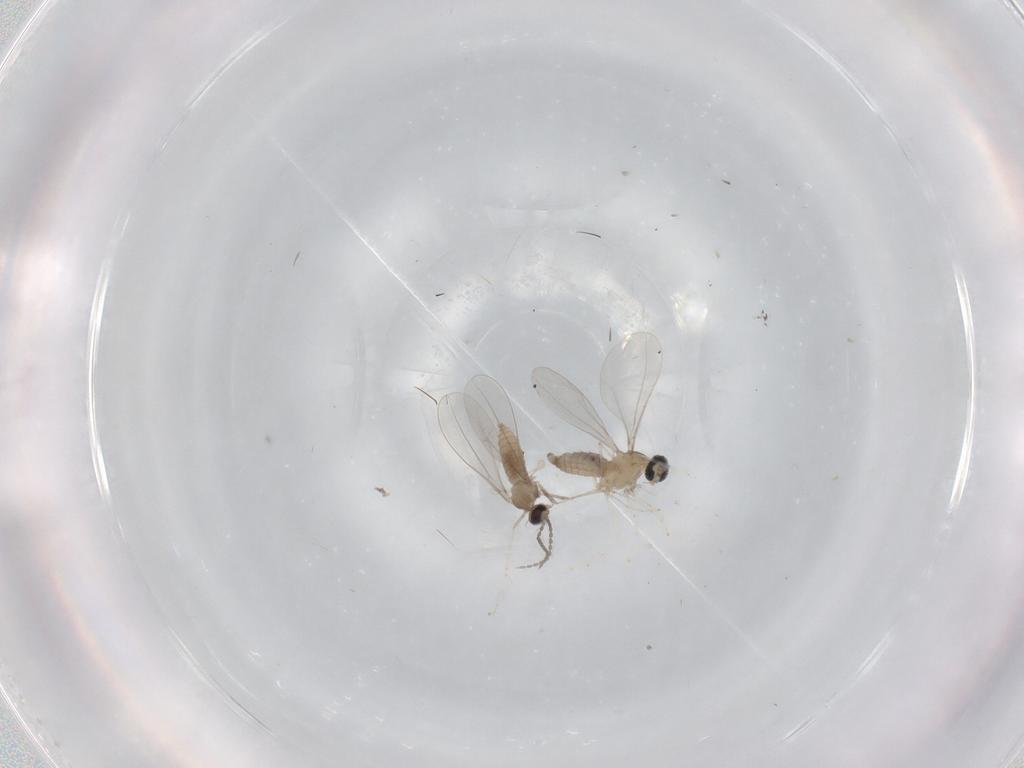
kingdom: Animalia
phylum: Arthropoda
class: Insecta
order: Diptera
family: Cecidomyiidae
